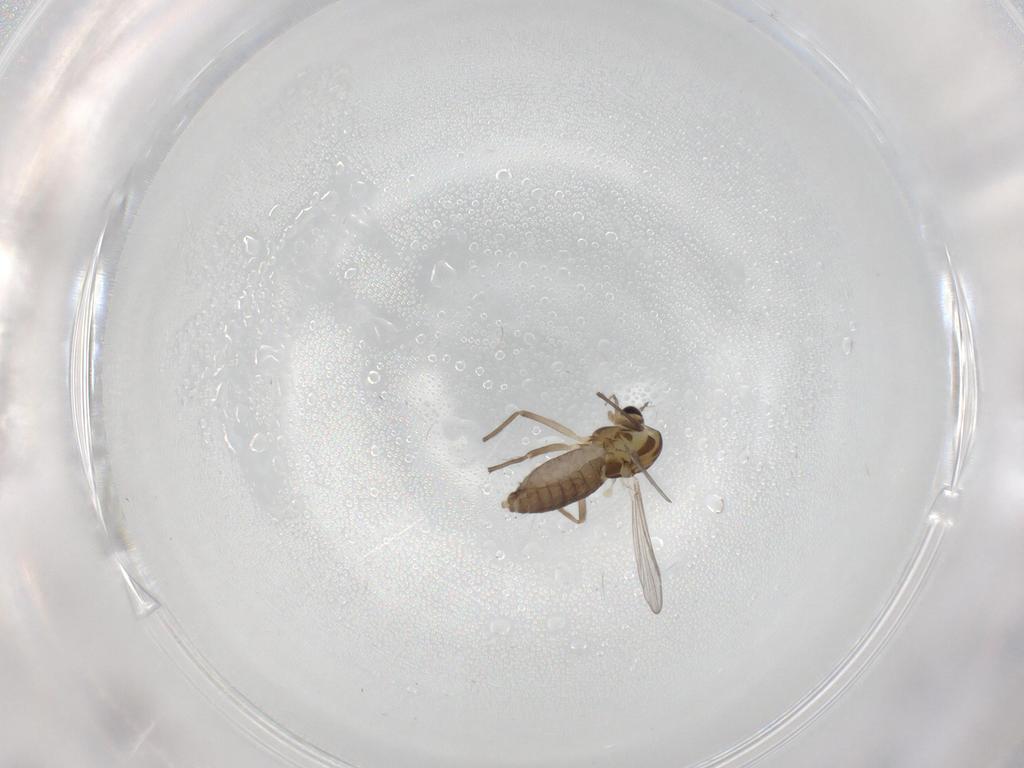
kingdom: Animalia
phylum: Arthropoda
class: Insecta
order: Diptera
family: Chironomidae
